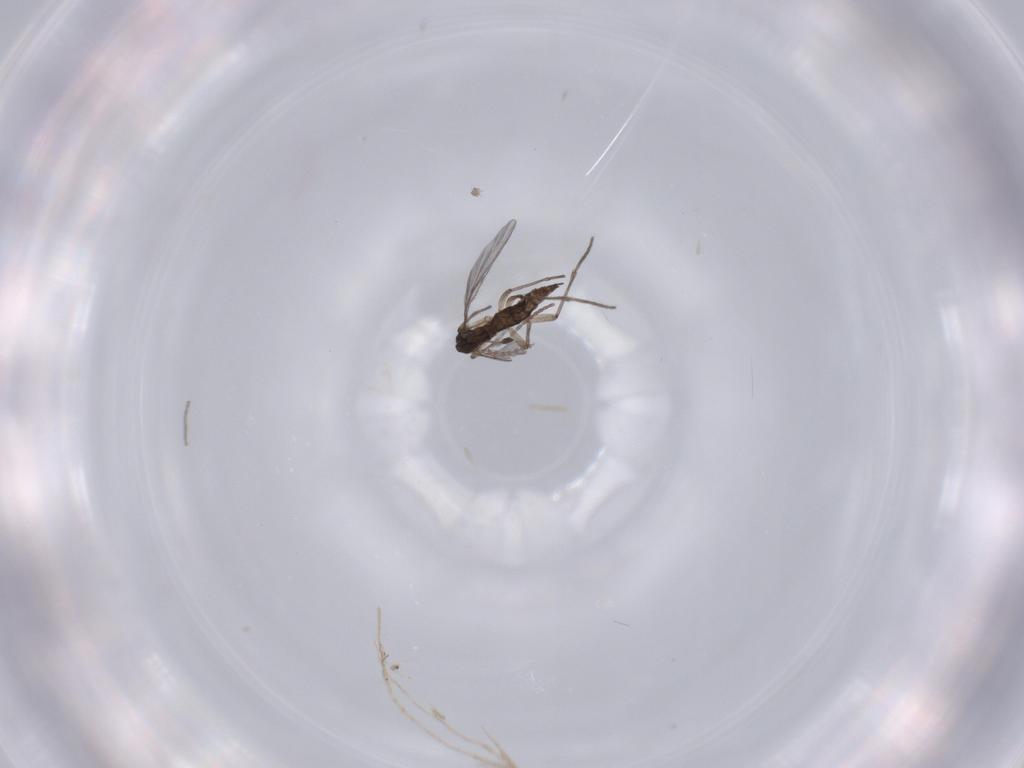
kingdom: Animalia
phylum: Arthropoda
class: Insecta
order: Diptera
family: Sciaridae
